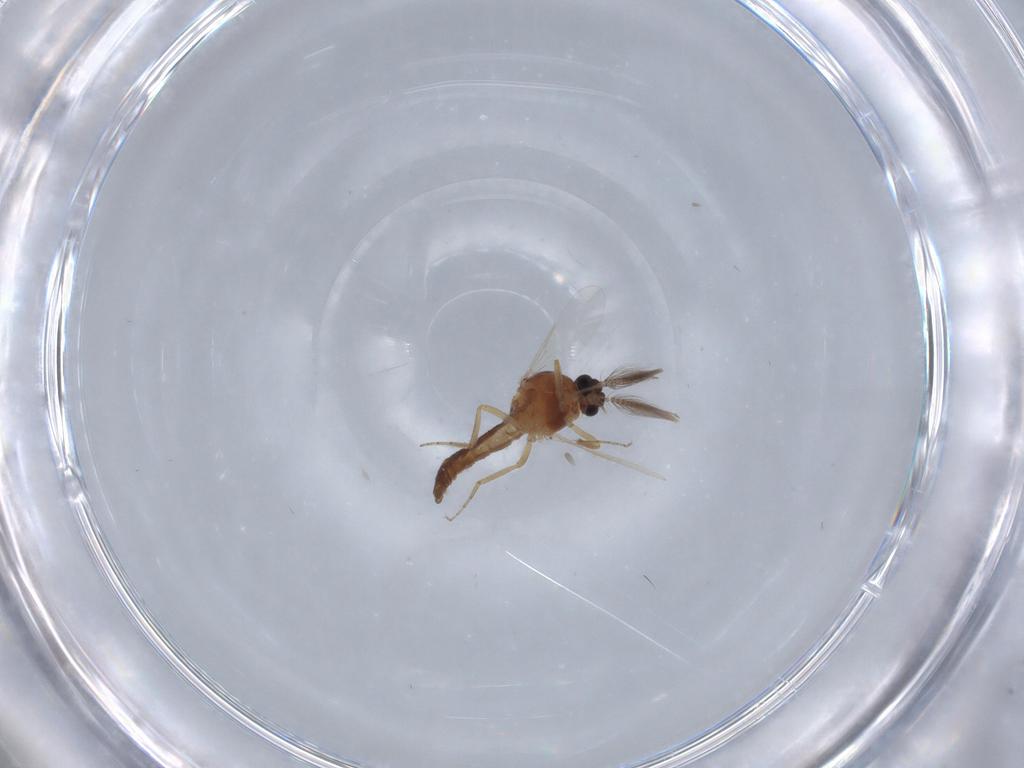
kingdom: Animalia
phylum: Arthropoda
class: Insecta
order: Diptera
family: Ceratopogonidae
